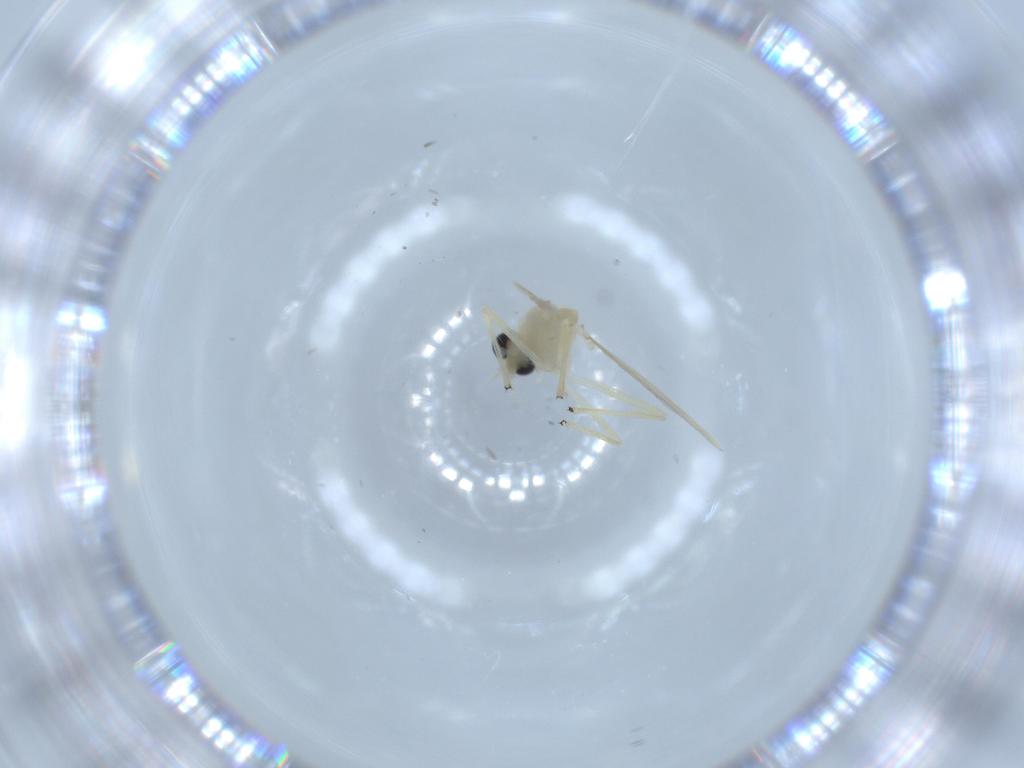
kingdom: Animalia
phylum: Arthropoda
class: Insecta
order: Diptera
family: Chironomidae
